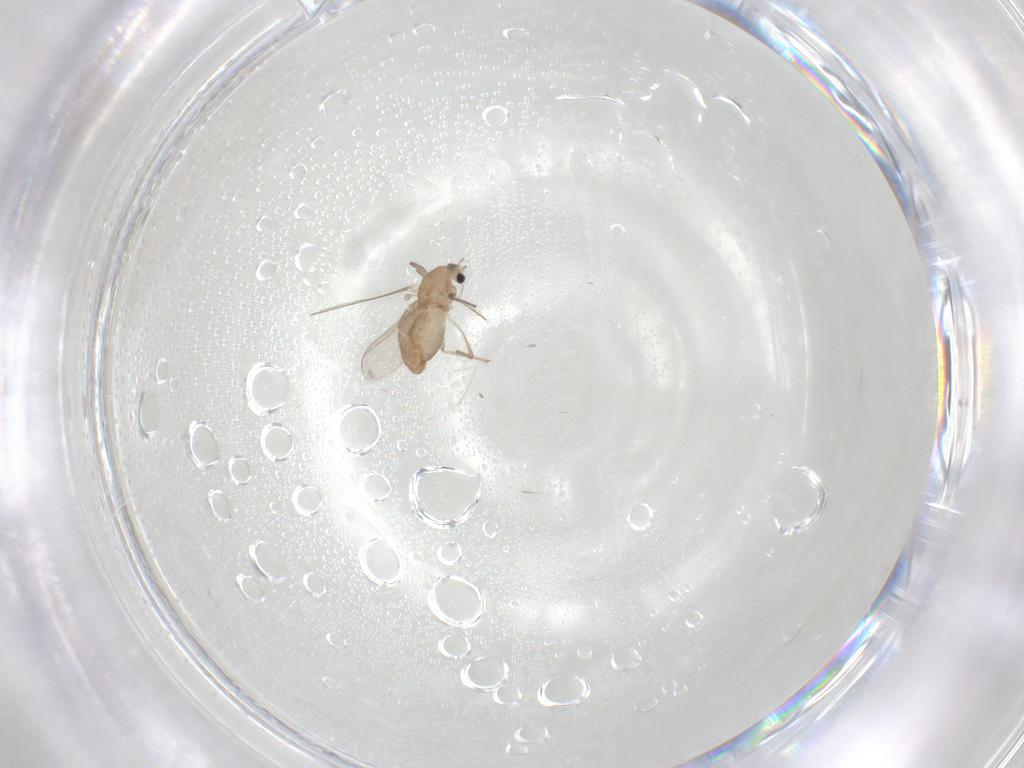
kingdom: Animalia
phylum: Arthropoda
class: Insecta
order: Diptera
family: Chironomidae
